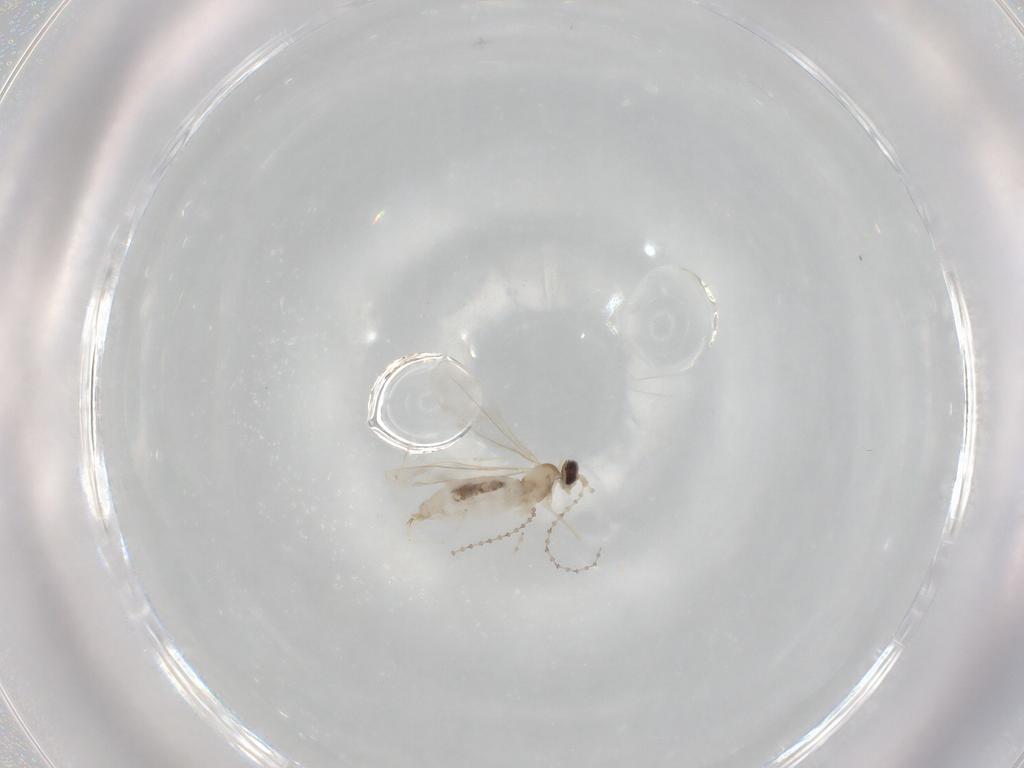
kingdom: Animalia
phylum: Arthropoda
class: Insecta
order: Diptera
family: Cecidomyiidae
